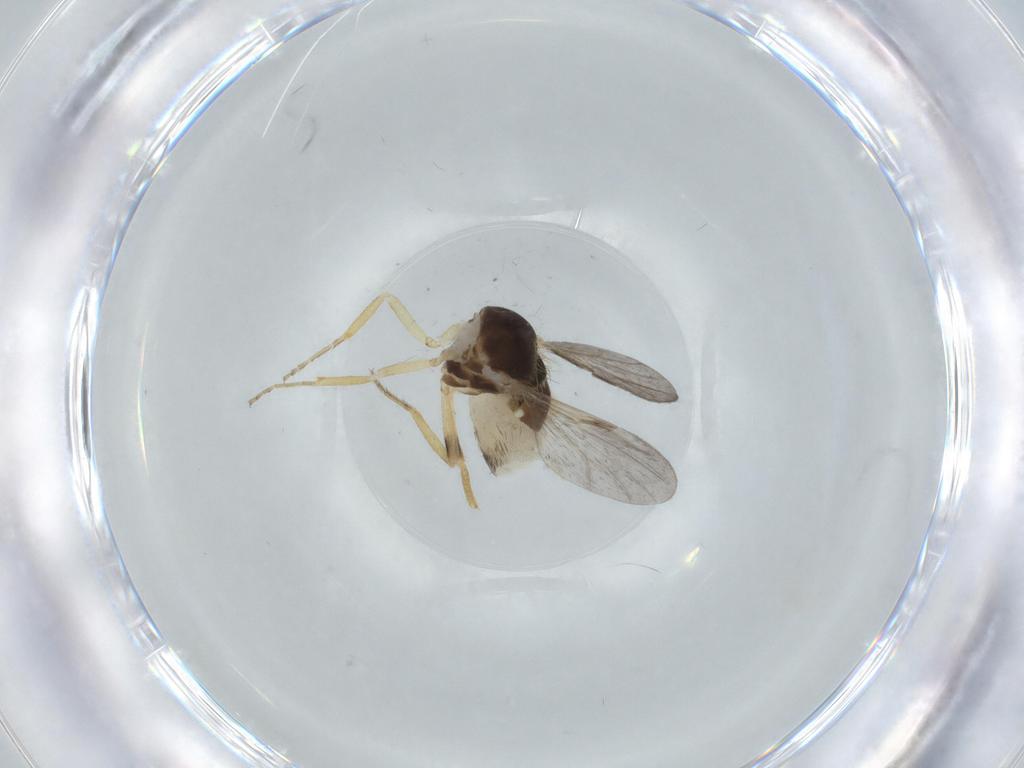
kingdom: Animalia
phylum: Arthropoda
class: Insecta
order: Diptera
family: Ceratopogonidae
